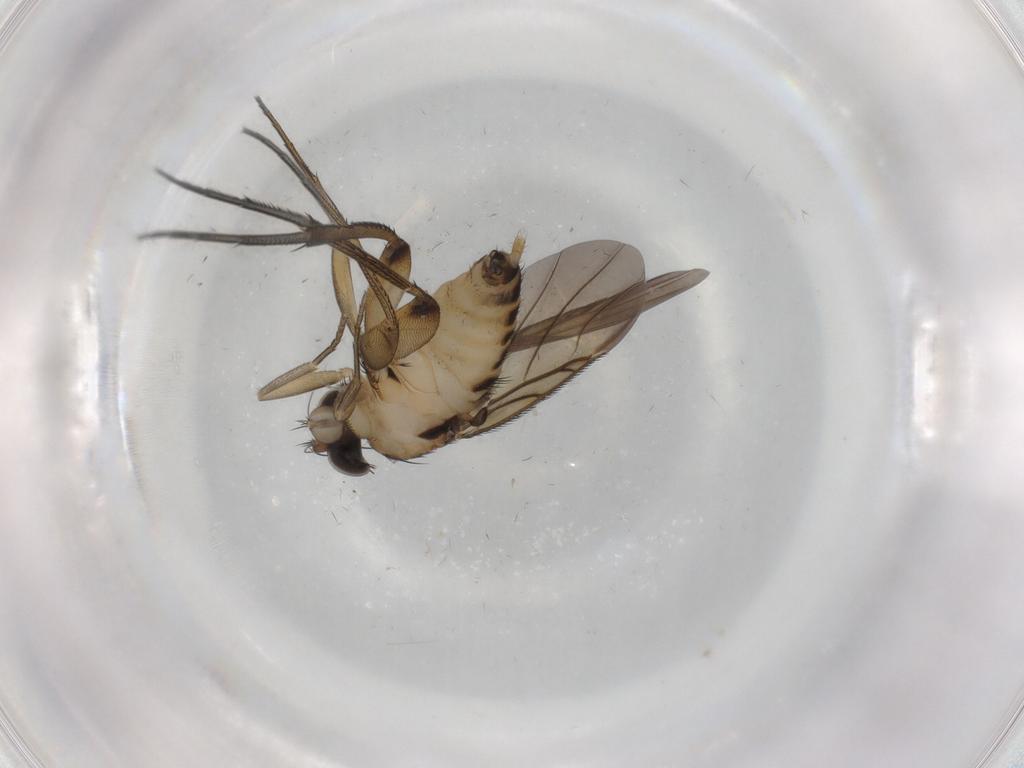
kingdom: Animalia
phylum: Arthropoda
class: Insecta
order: Diptera
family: Phoridae
